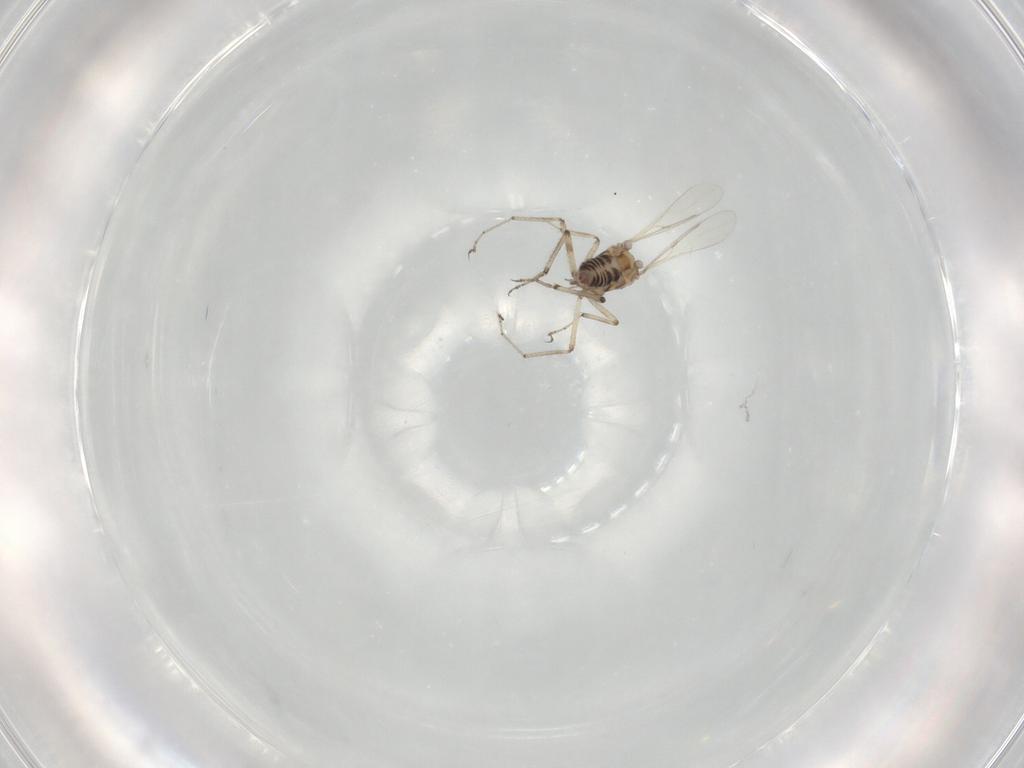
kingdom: Animalia
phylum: Arthropoda
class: Insecta
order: Diptera
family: Ceratopogonidae
